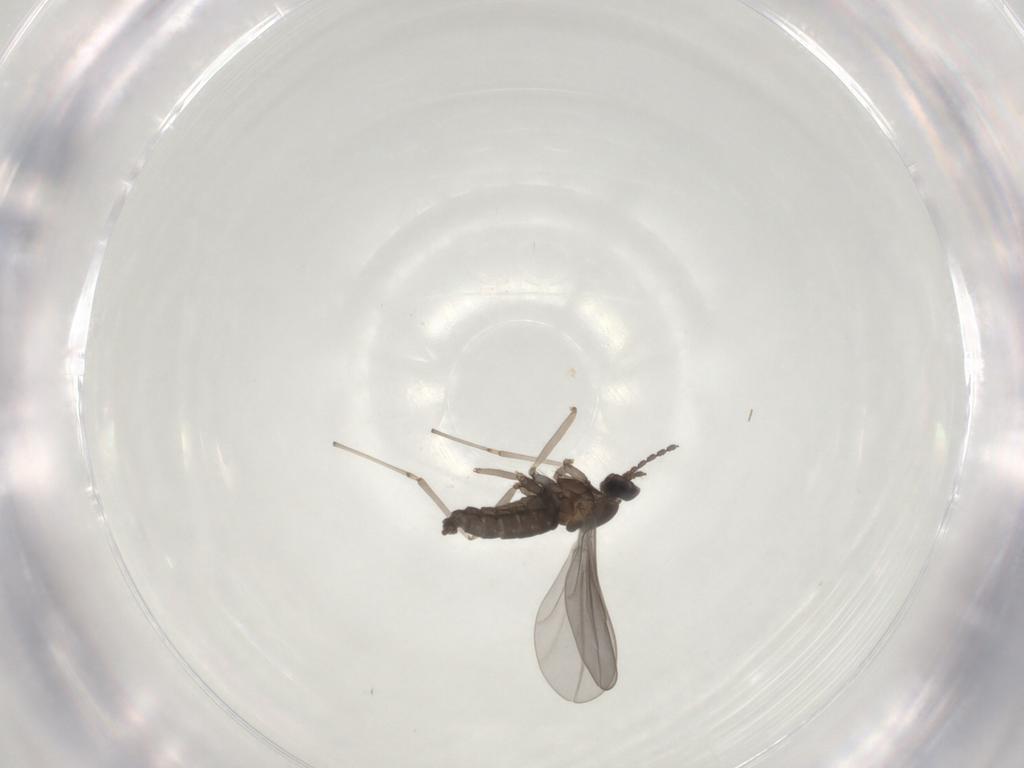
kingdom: Animalia
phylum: Arthropoda
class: Insecta
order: Diptera
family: Cecidomyiidae
